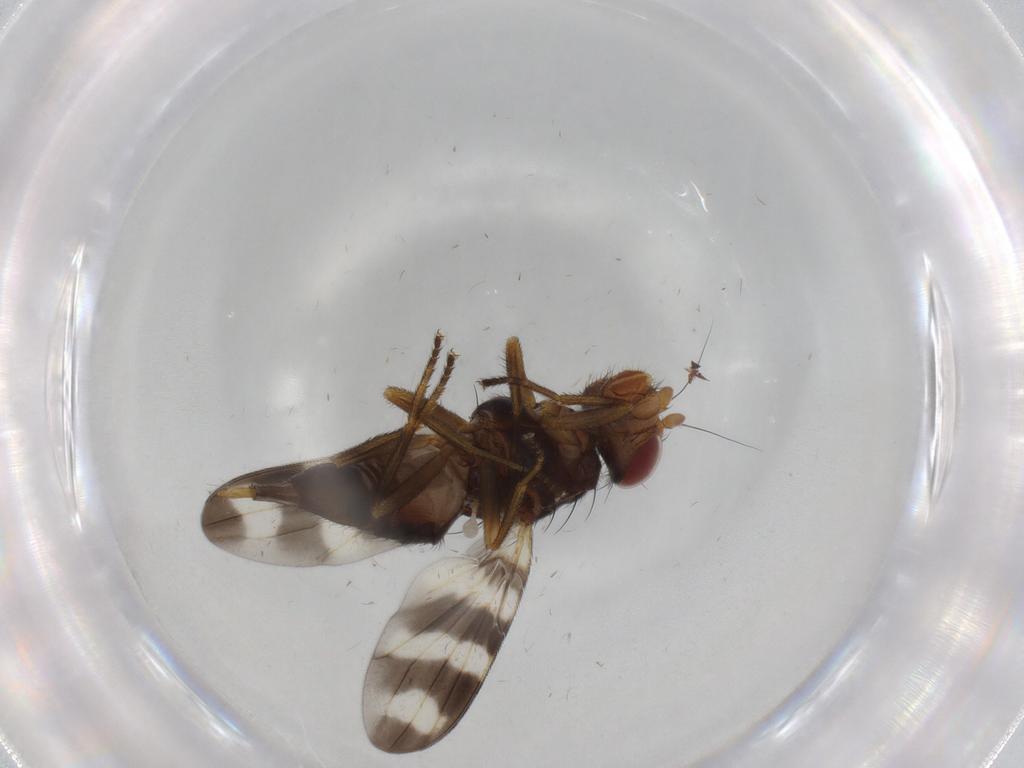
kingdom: Animalia
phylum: Arthropoda
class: Insecta
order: Diptera
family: Ulidiidae
